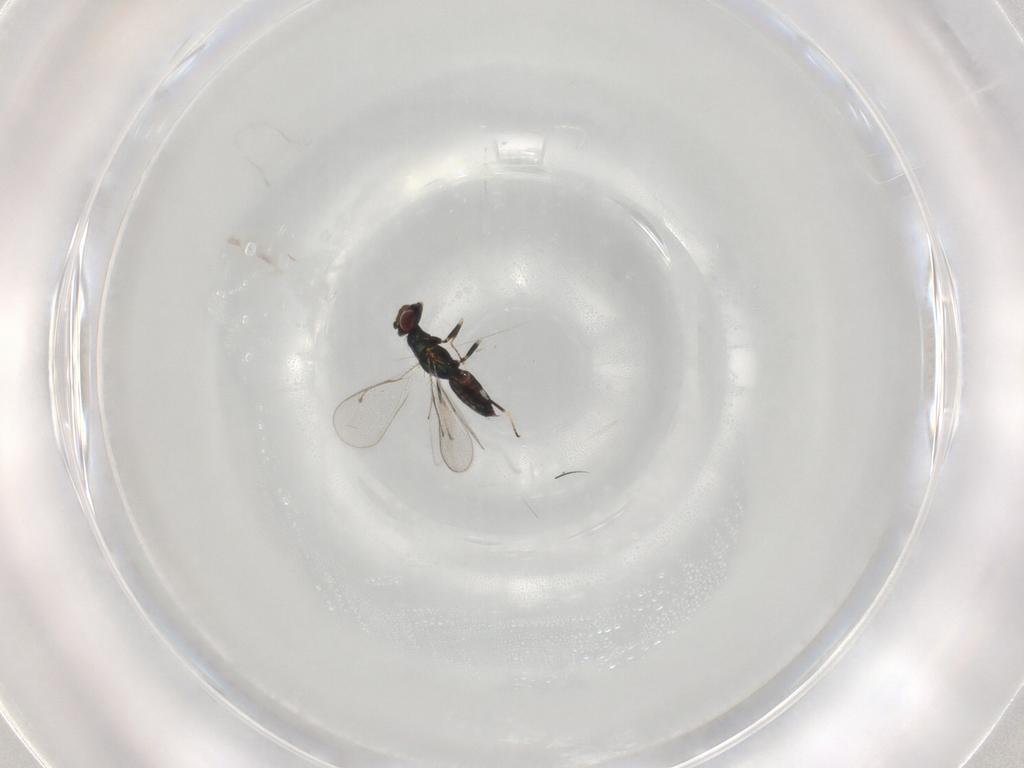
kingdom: Animalia
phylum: Arthropoda
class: Insecta
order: Hymenoptera
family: Eulophidae
